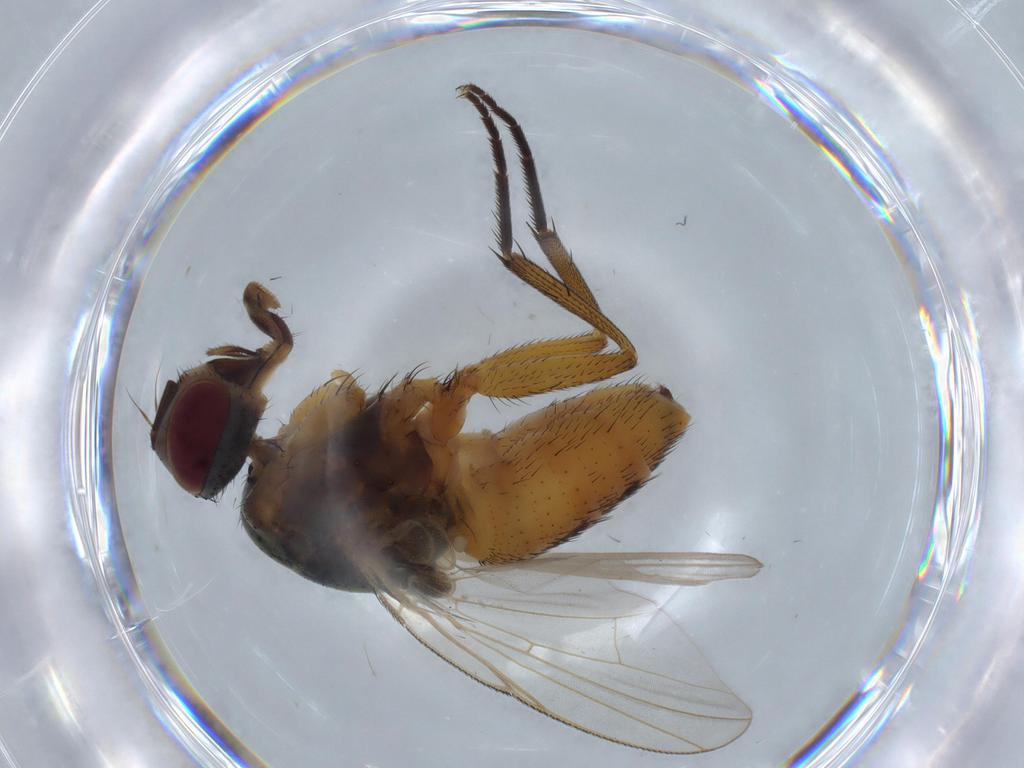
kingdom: Animalia
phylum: Arthropoda
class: Insecta
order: Diptera
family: Muscidae
